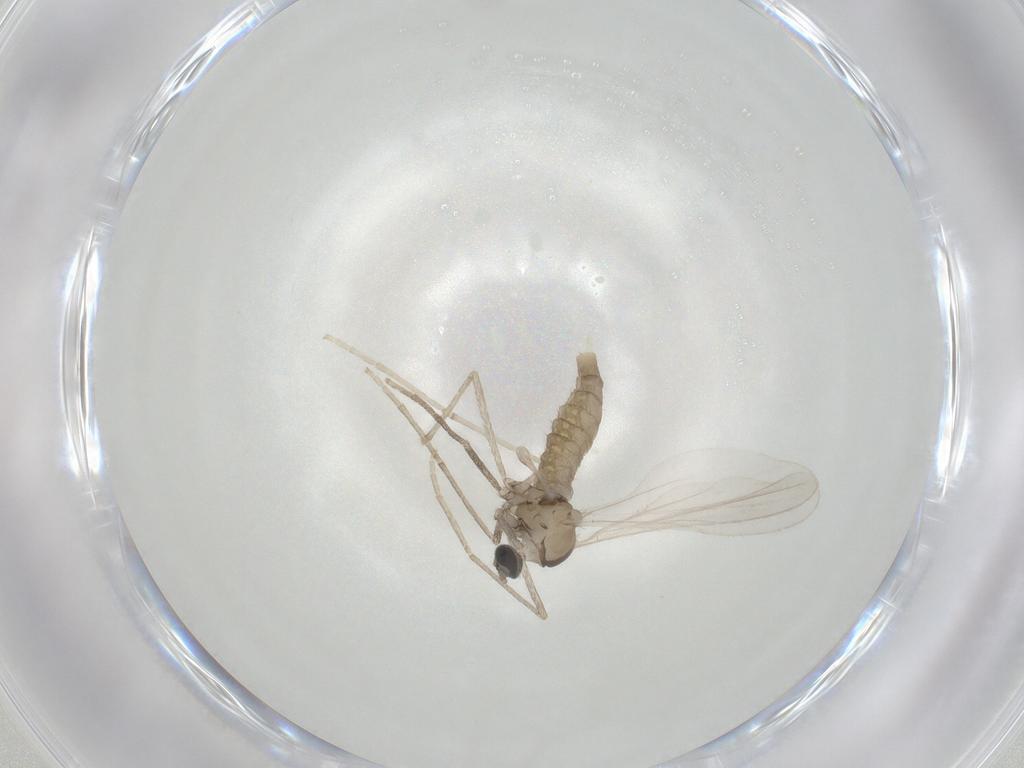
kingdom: Animalia
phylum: Arthropoda
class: Insecta
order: Diptera
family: Cecidomyiidae
